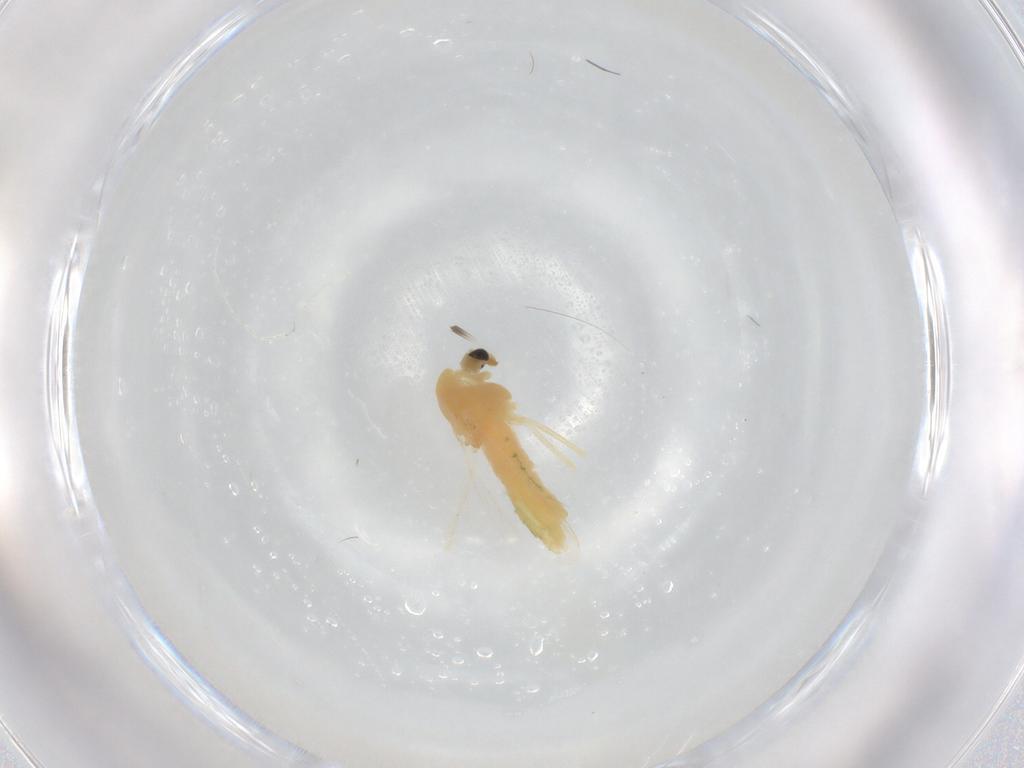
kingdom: Animalia
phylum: Arthropoda
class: Insecta
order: Diptera
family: Chironomidae
